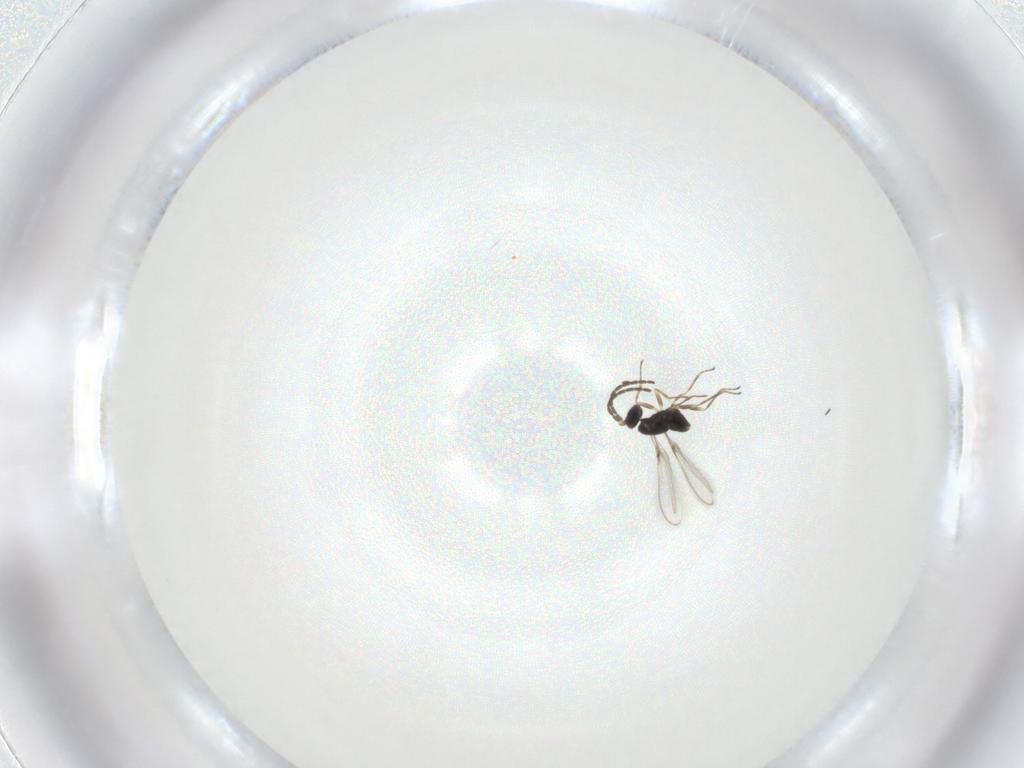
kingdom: Animalia
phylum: Arthropoda
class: Insecta
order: Hymenoptera
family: Mymaridae
